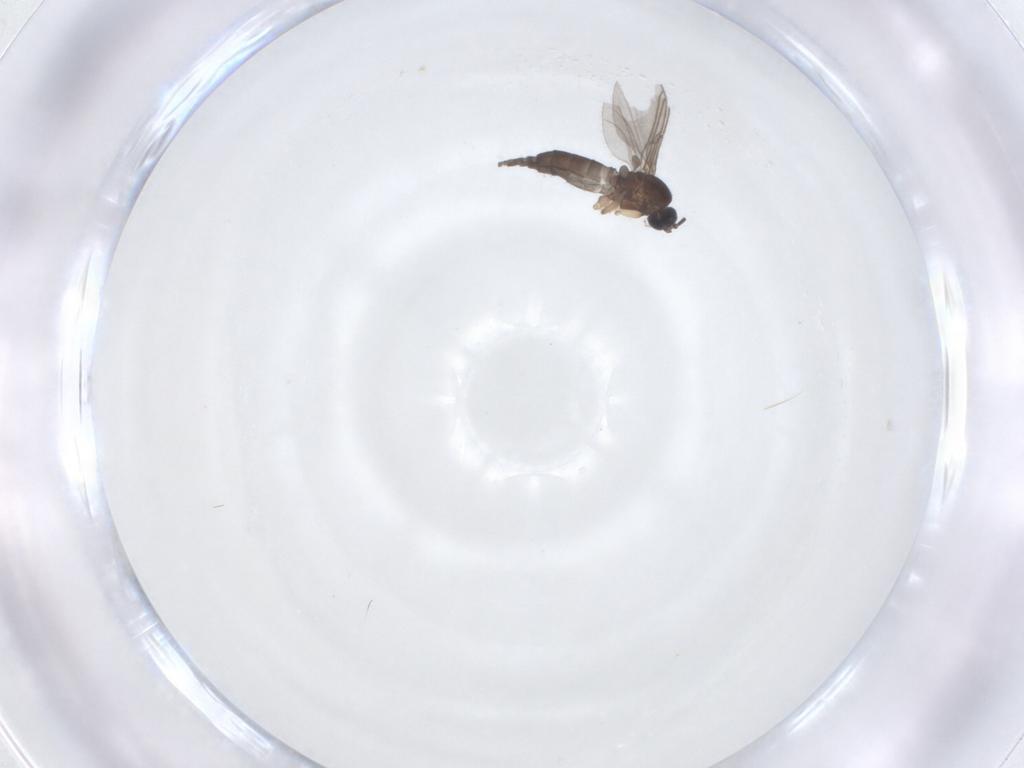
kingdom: Animalia
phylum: Arthropoda
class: Insecta
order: Diptera
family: Sciaridae
